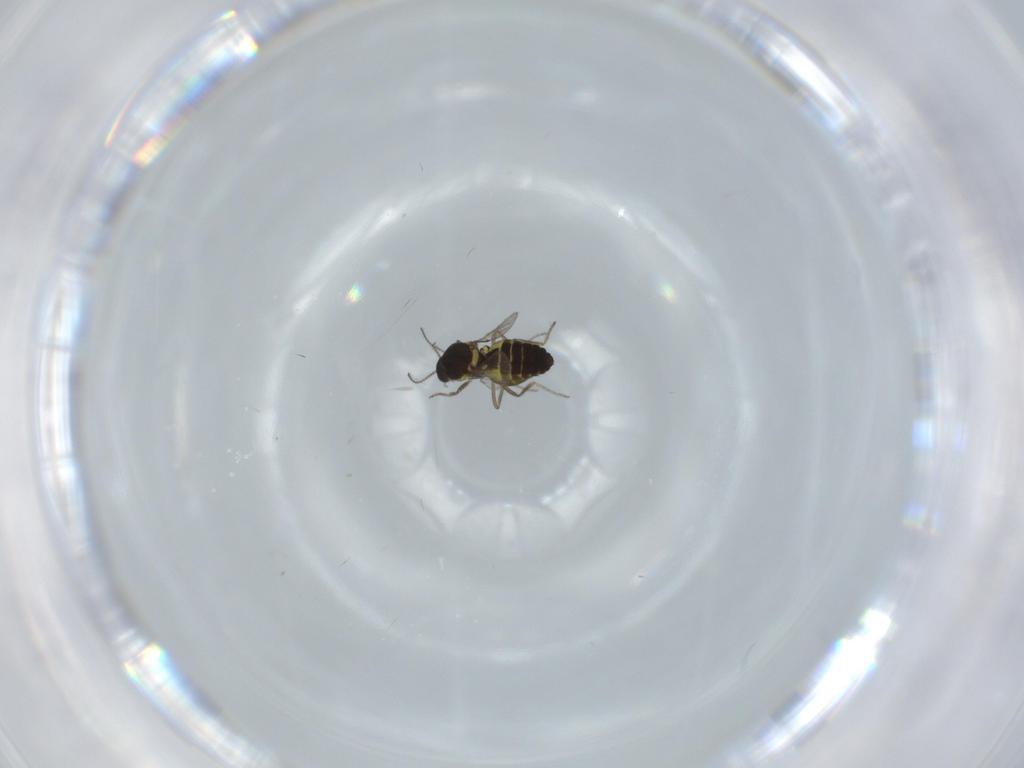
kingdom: Animalia
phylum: Arthropoda
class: Insecta
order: Diptera
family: Ceratopogonidae
